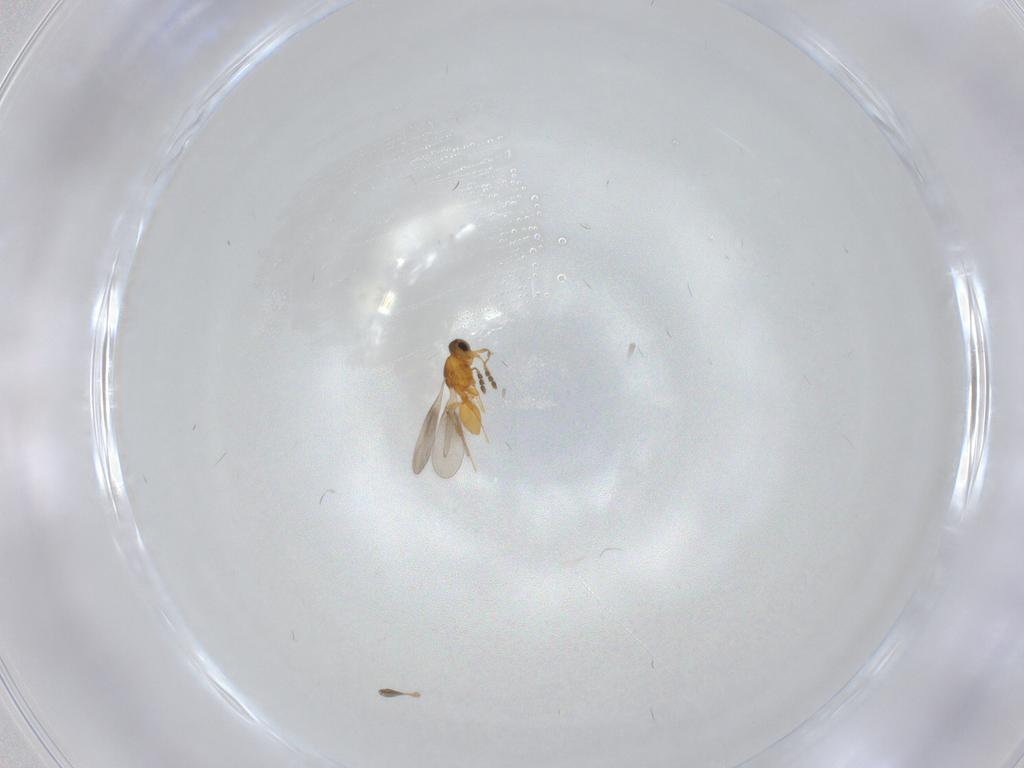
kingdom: Animalia
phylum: Arthropoda
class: Insecta
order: Hymenoptera
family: Platygastridae
